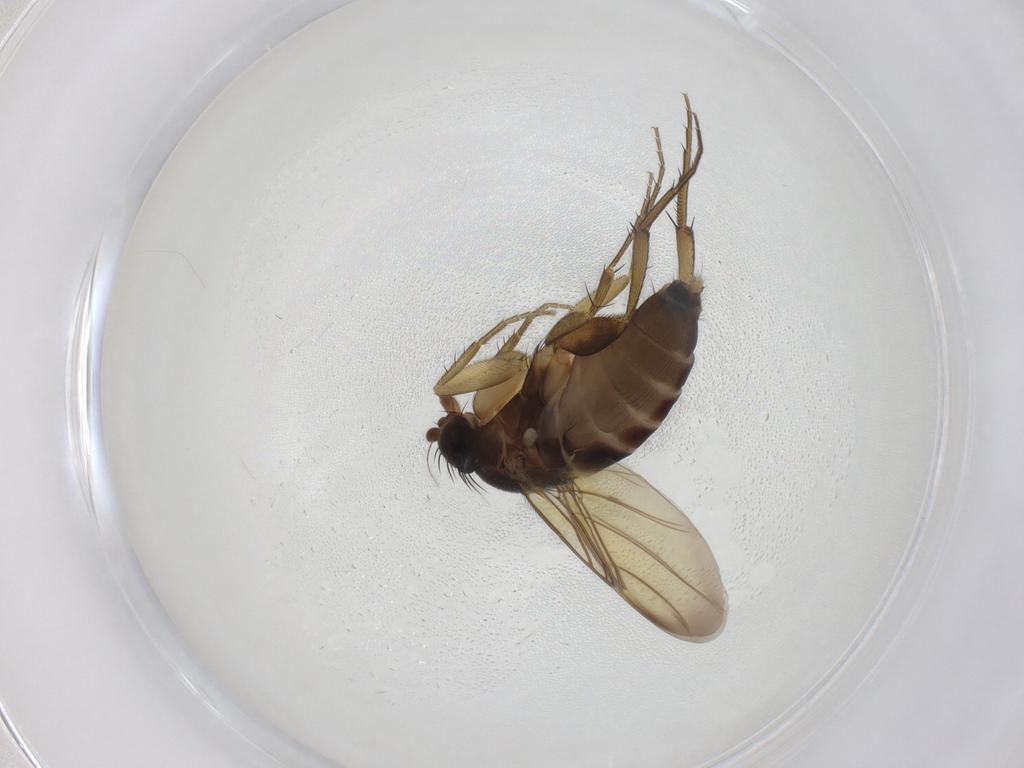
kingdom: Animalia
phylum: Arthropoda
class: Insecta
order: Diptera
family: Phoridae
